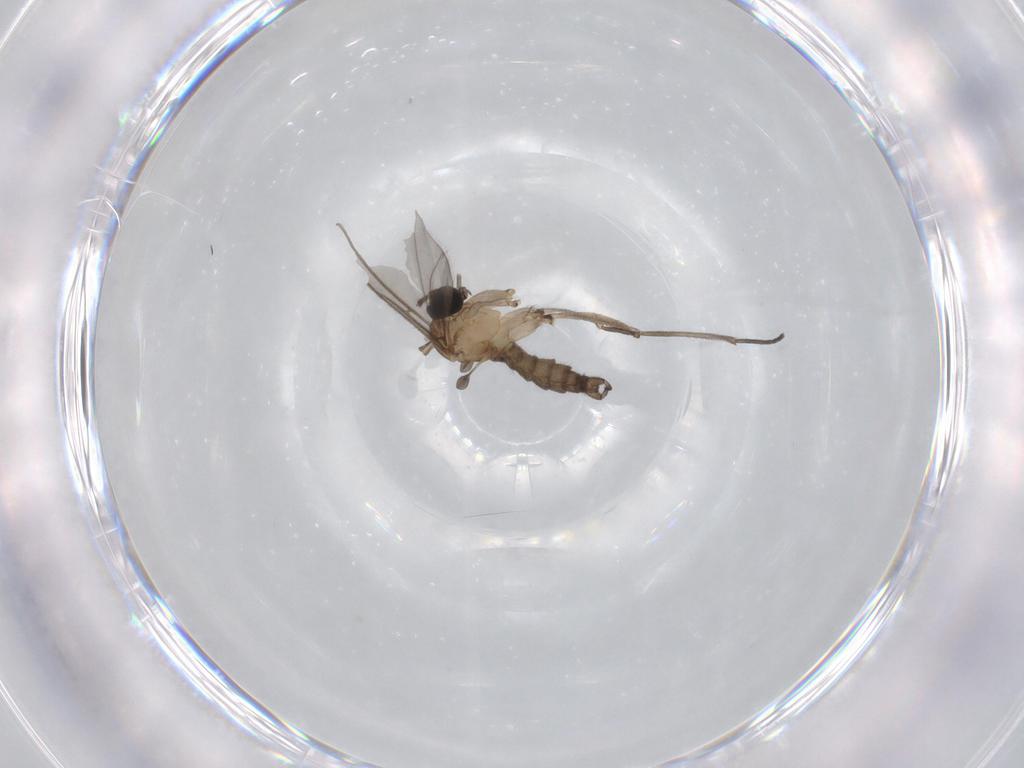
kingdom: Animalia
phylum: Arthropoda
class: Insecta
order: Diptera
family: Sciaridae
